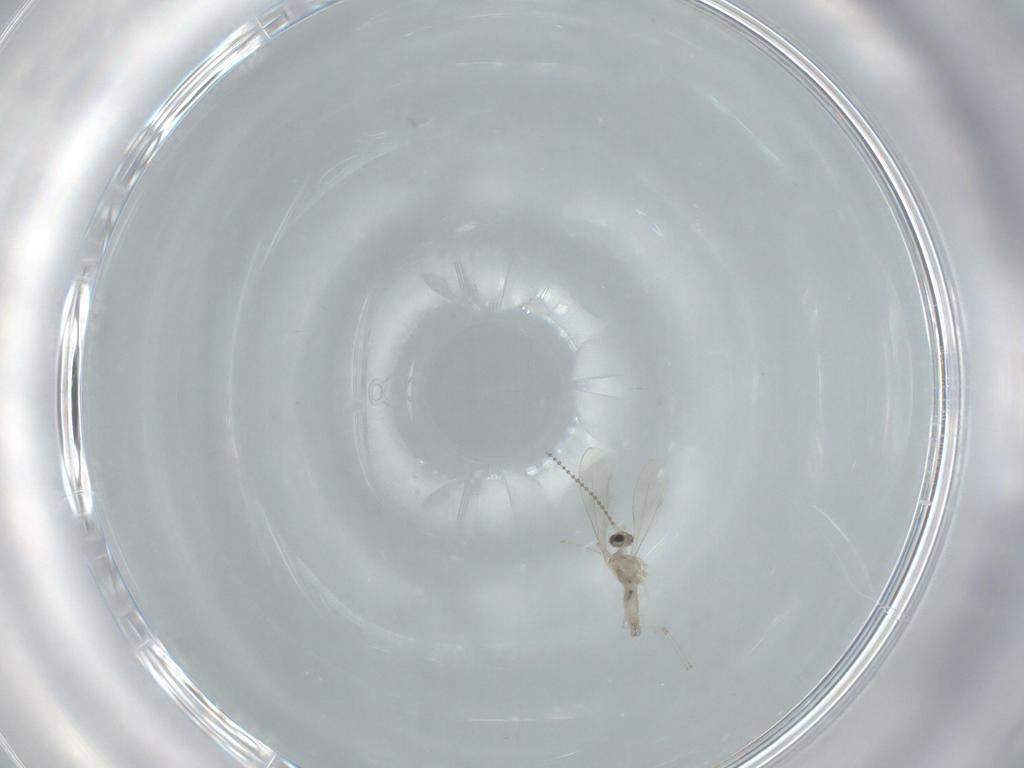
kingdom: Animalia
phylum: Arthropoda
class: Insecta
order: Diptera
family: Cecidomyiidae
